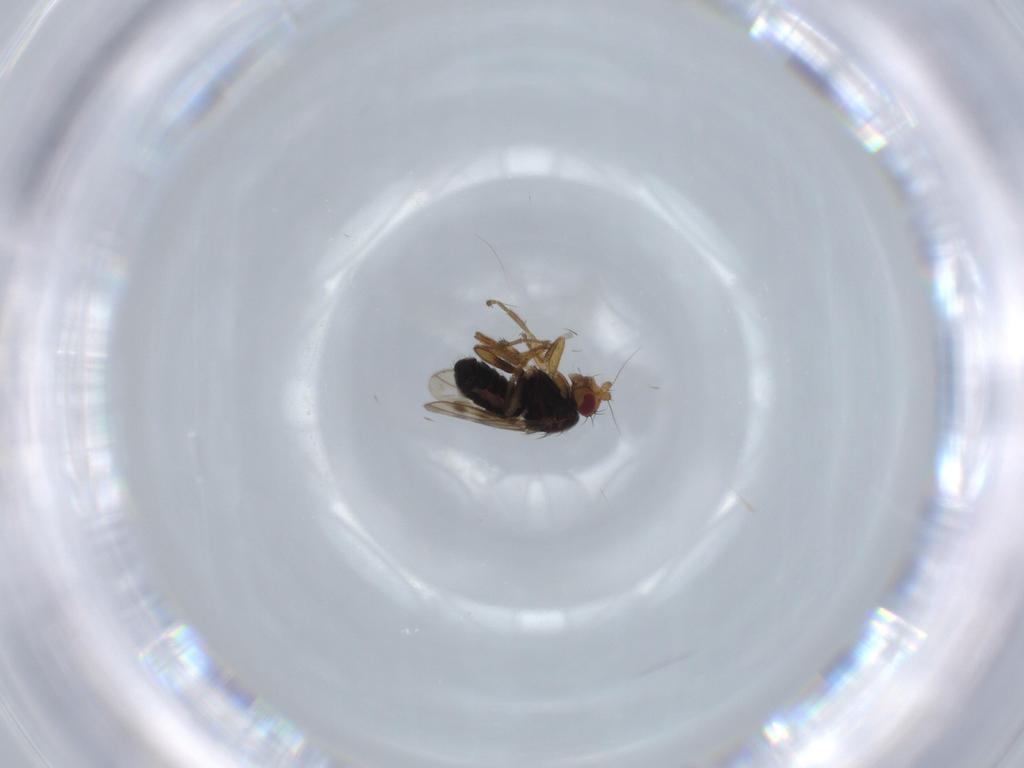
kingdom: Animalia
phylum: Arthropoda
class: Insecta
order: Diptera
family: Sphaeroceridae
